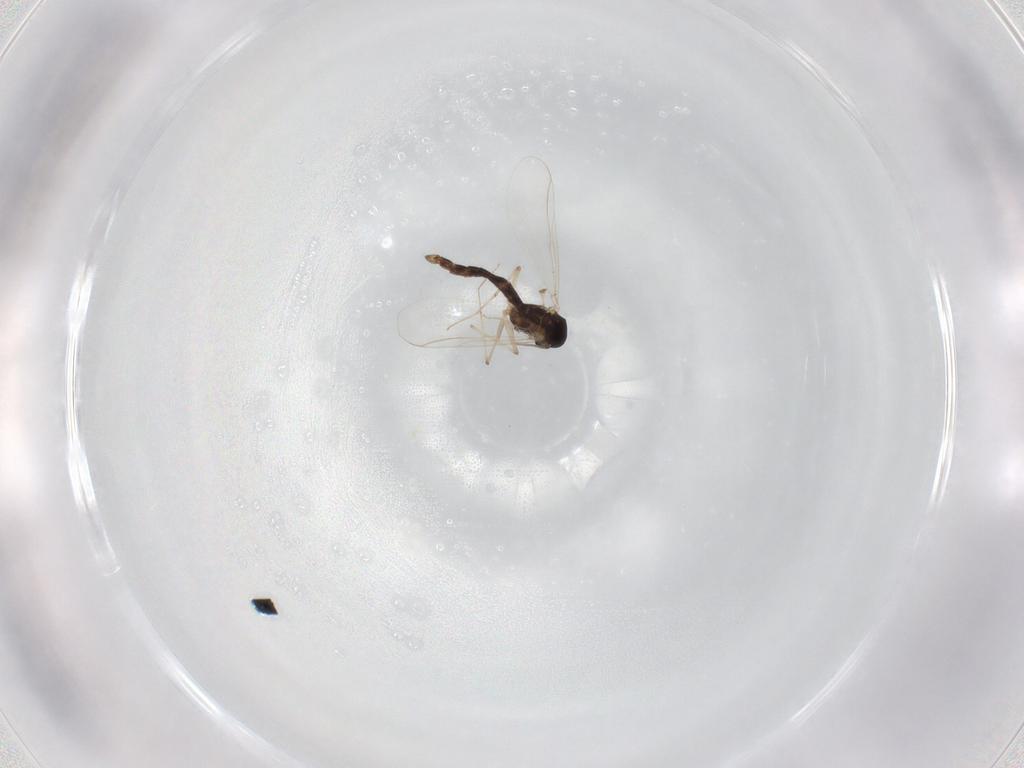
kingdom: Animalia
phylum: Arthropoda
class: Insecta
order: Diptera
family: Chironomidae
